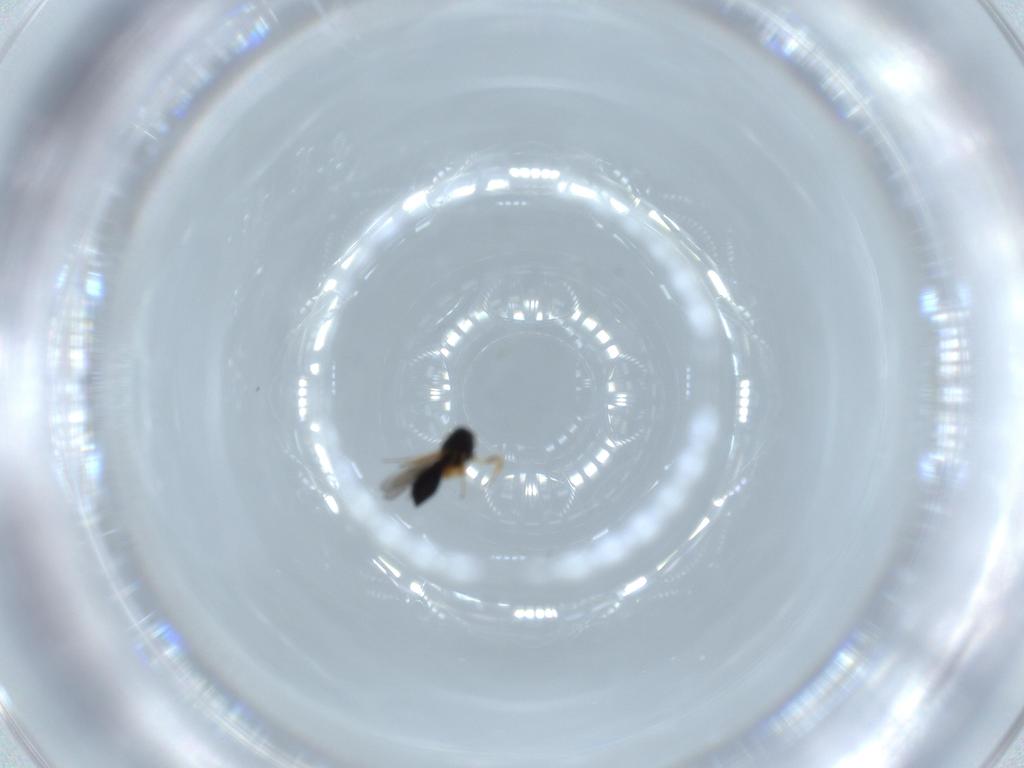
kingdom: Animalia
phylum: Arthropoda
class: Insecta
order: Hymenoptera
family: Scelionidae
